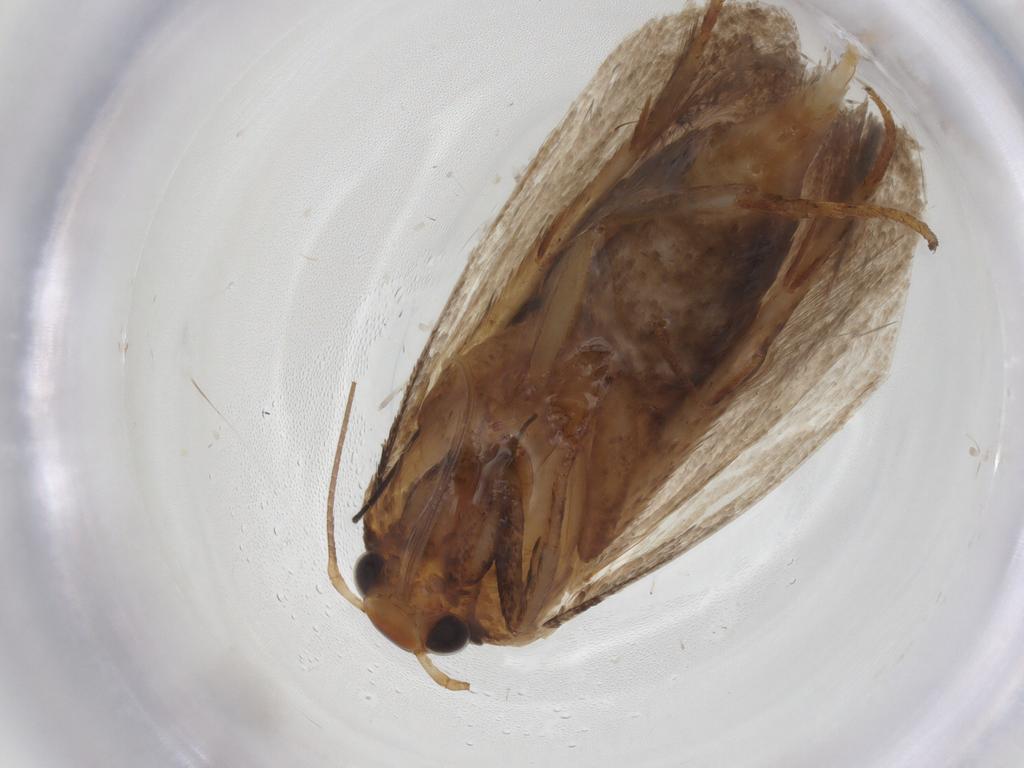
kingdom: Animalia
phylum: Arthropoda
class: Insecta
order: Lepidoptera
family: Oecophoridae
